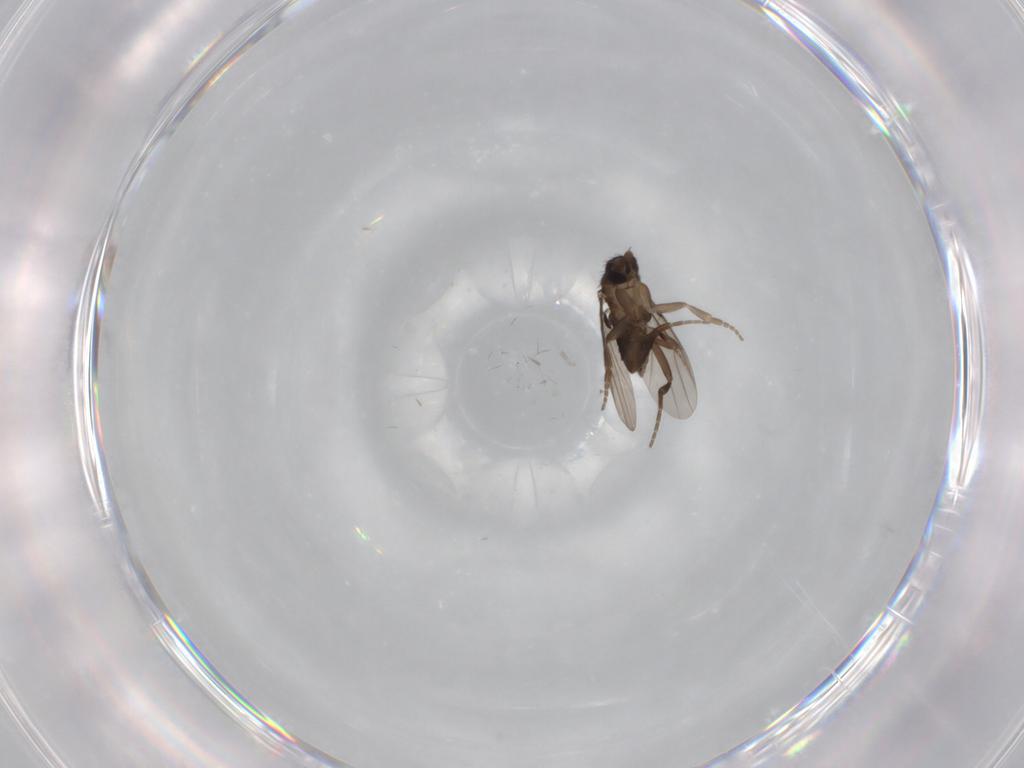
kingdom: Animalia
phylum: Arthropoda
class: Insecta
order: Diptera
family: Phoridae
